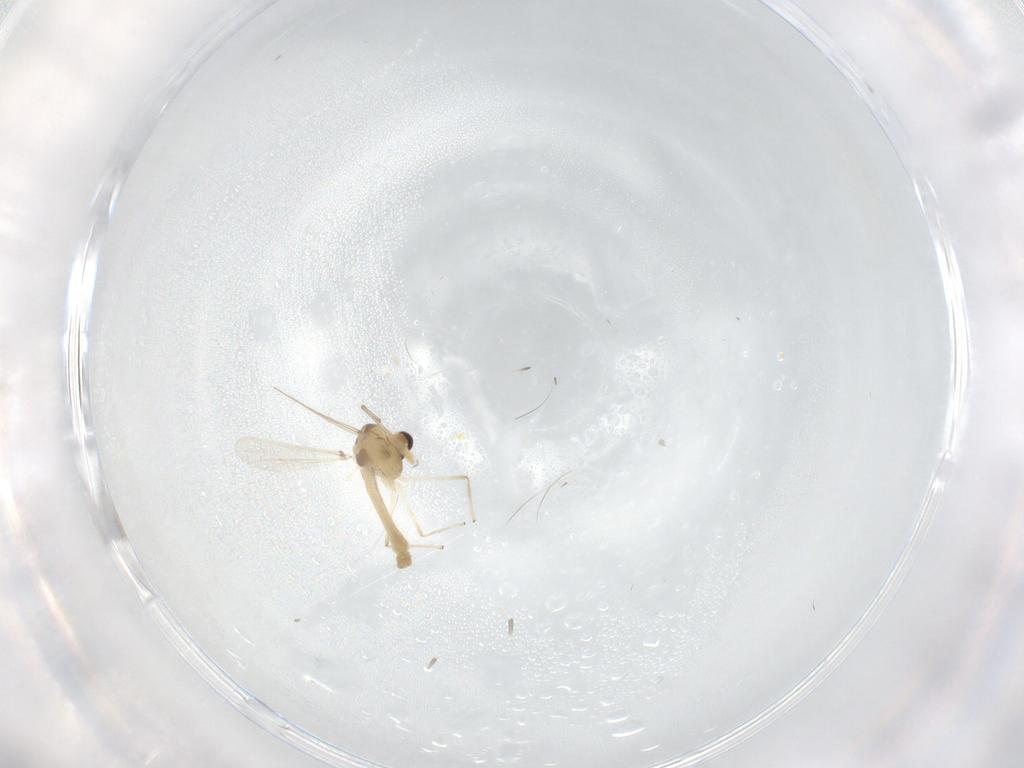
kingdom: Animalia
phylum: Arthropoda
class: Insecta
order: Diptera
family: Chironomidae
